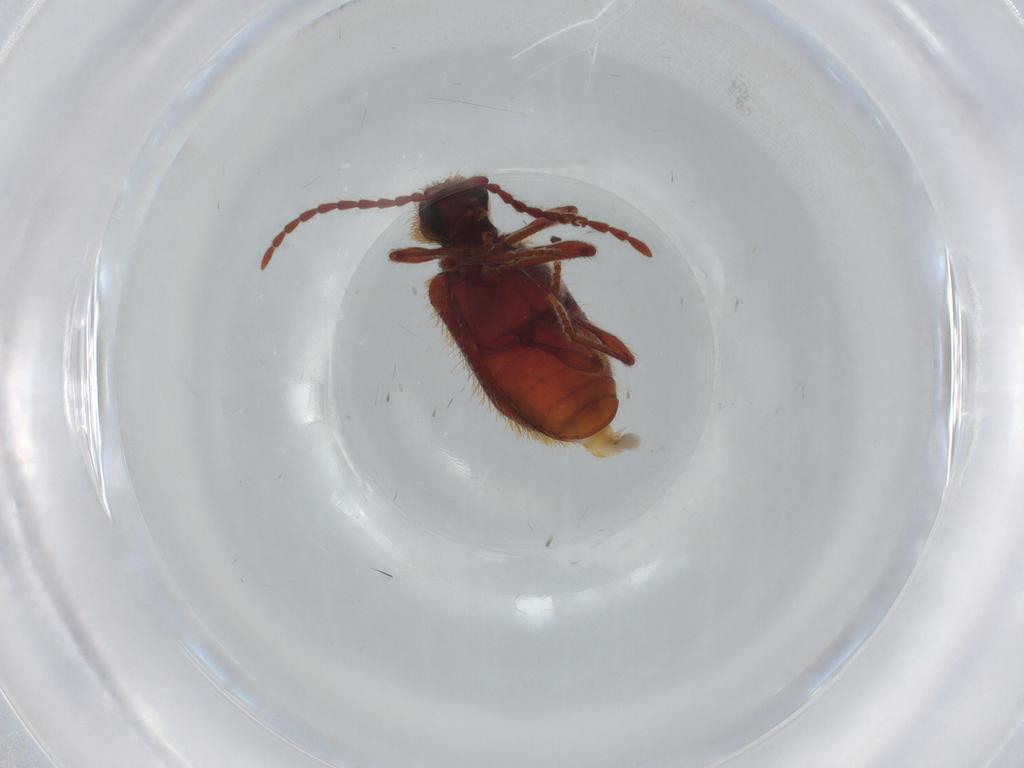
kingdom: Animalia
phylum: Arthropoda
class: Insecta
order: Coleoptera
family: Ptinidae
